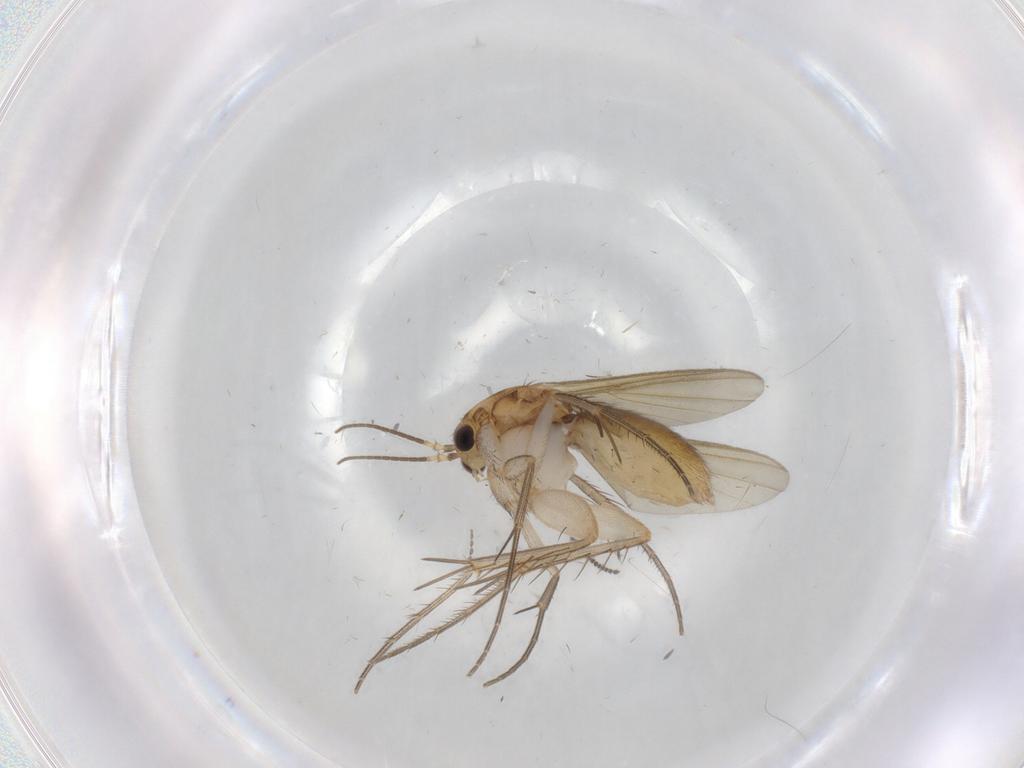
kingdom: Animalia
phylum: Arthropoda
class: Insecta
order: Diptera
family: Mycetophilidae
